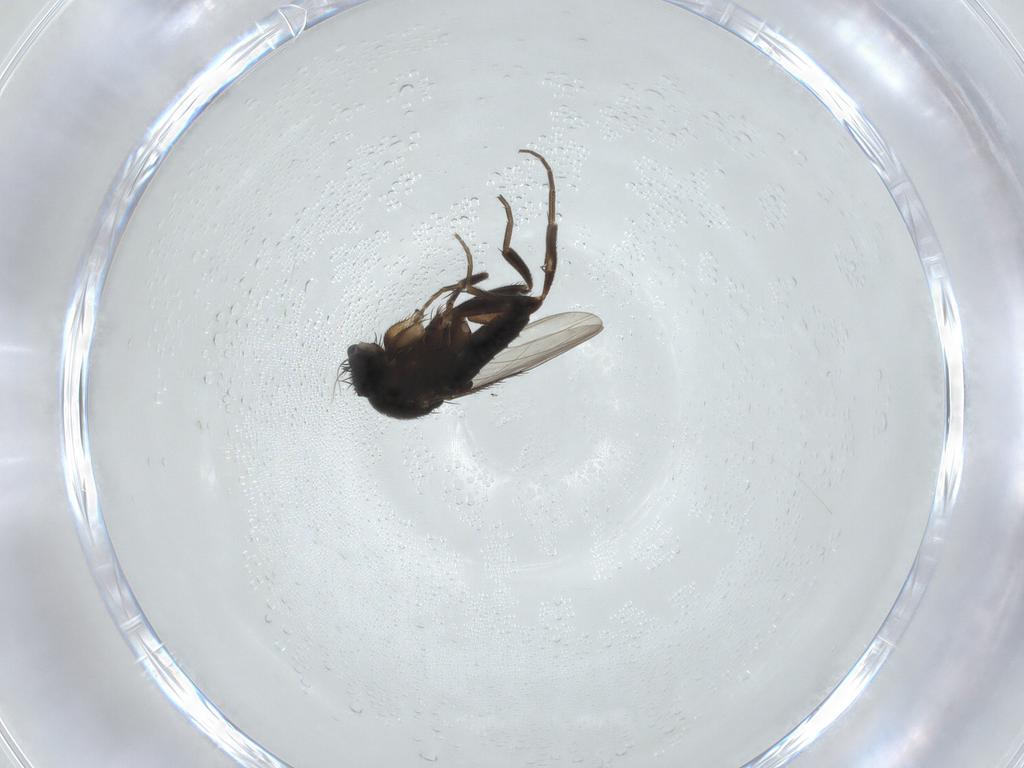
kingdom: Animalia
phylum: Arthropoda
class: Insecta
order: Diptera
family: Phoridae
